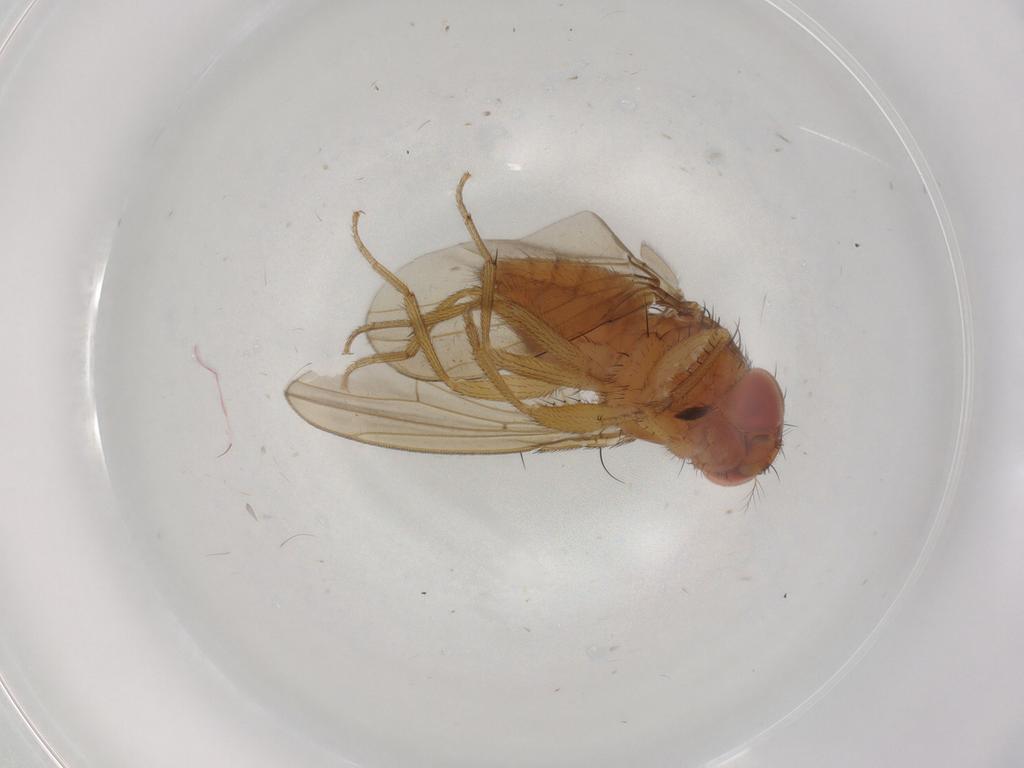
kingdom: Animalia
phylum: Arthropoda
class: Insecta
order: Diptera
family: Drosophilidae
